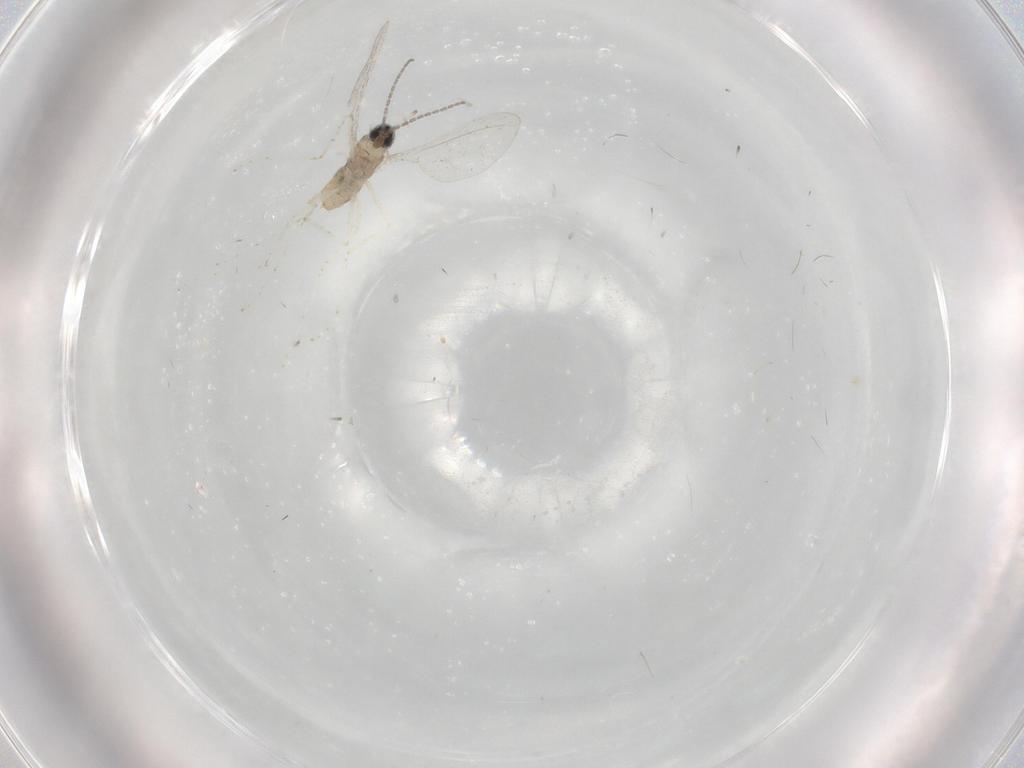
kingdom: Animalia
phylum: Arthropoda
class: Insecta
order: Diptera
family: Cecidomyiidae
